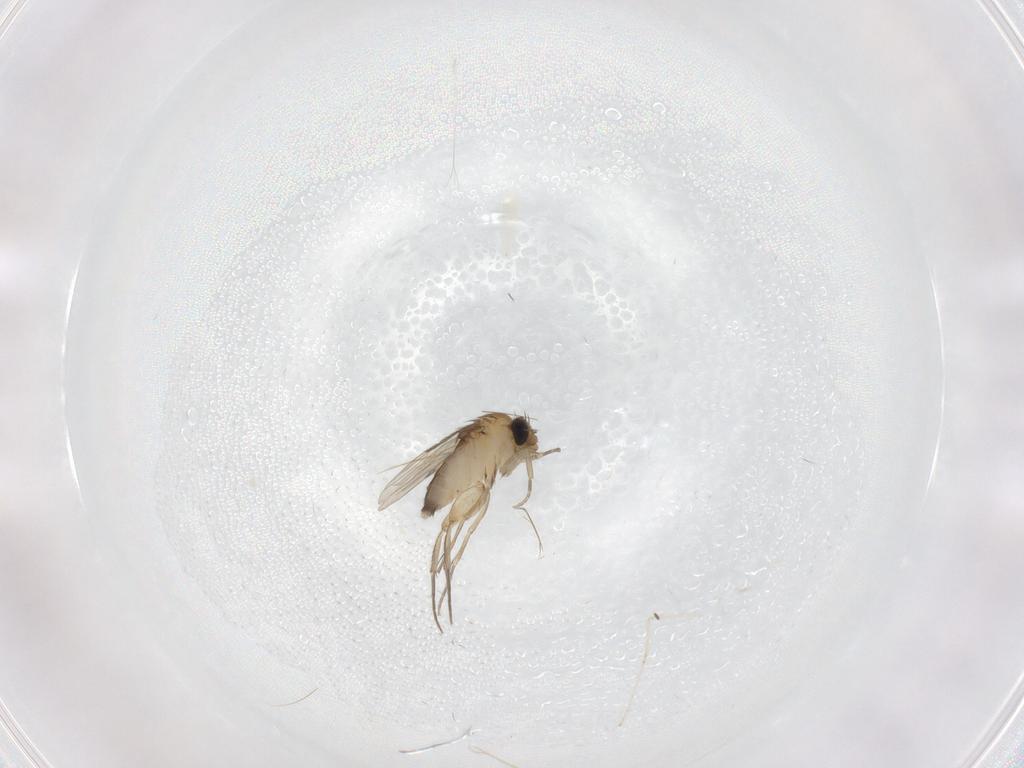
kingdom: Animalia
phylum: Arthropoda
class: Insecta
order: Diptera
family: Phoridae
